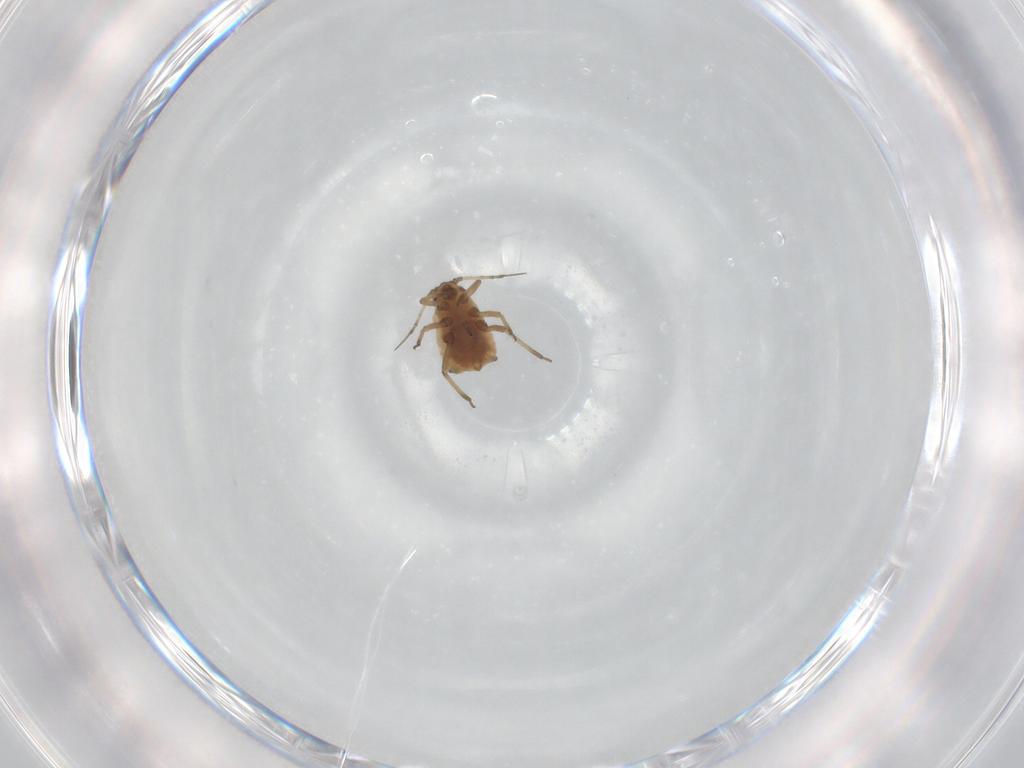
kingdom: Animalia
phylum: Arthropoda
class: Insecta
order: Hemiptera
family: Aphididae
